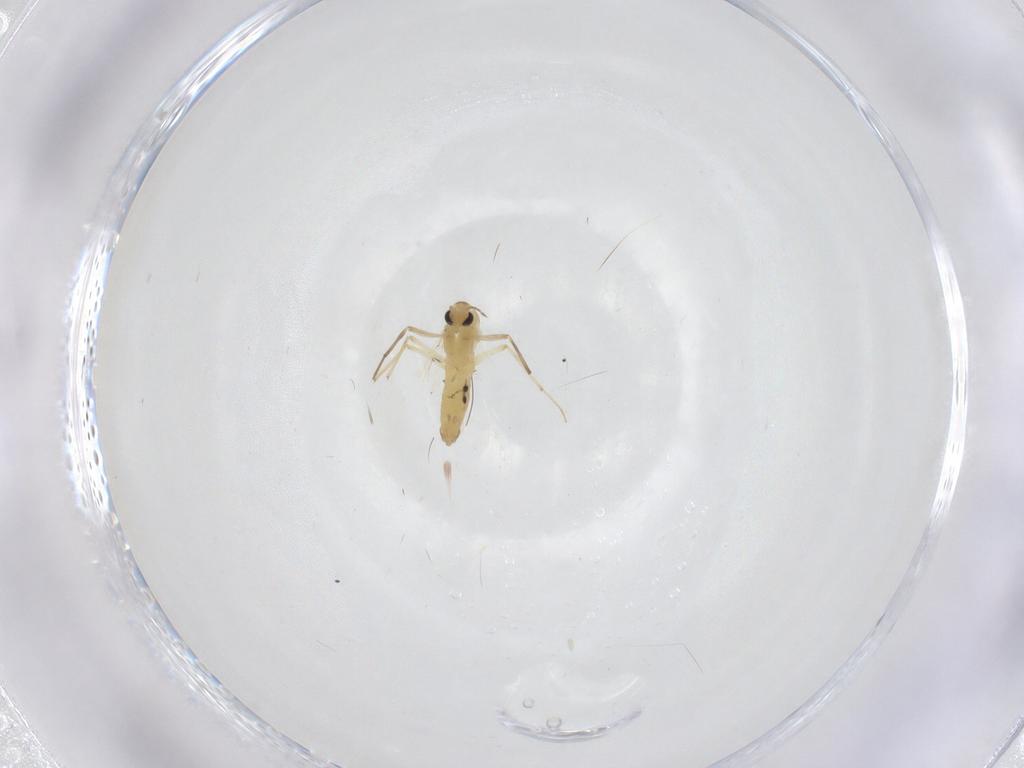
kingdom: Animalia
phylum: Arthropoda
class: Insecta
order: Diptera
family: Chironomidae
